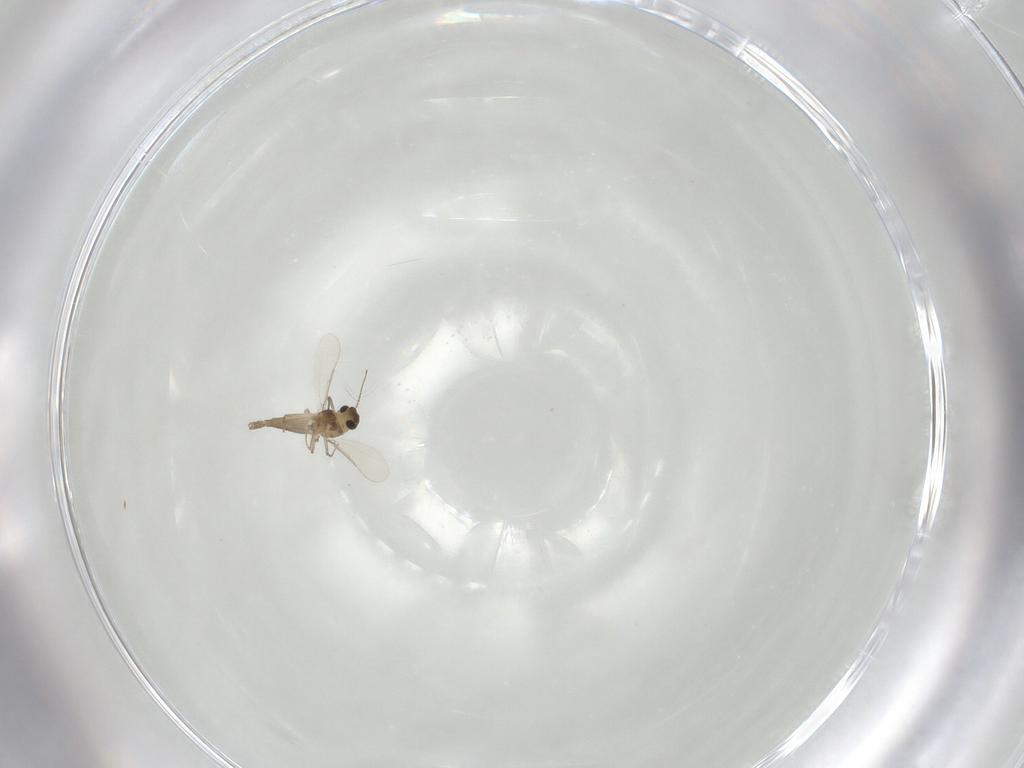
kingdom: Animalia
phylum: Arthropoda
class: Insecta
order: Diptera
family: Chironomidae
